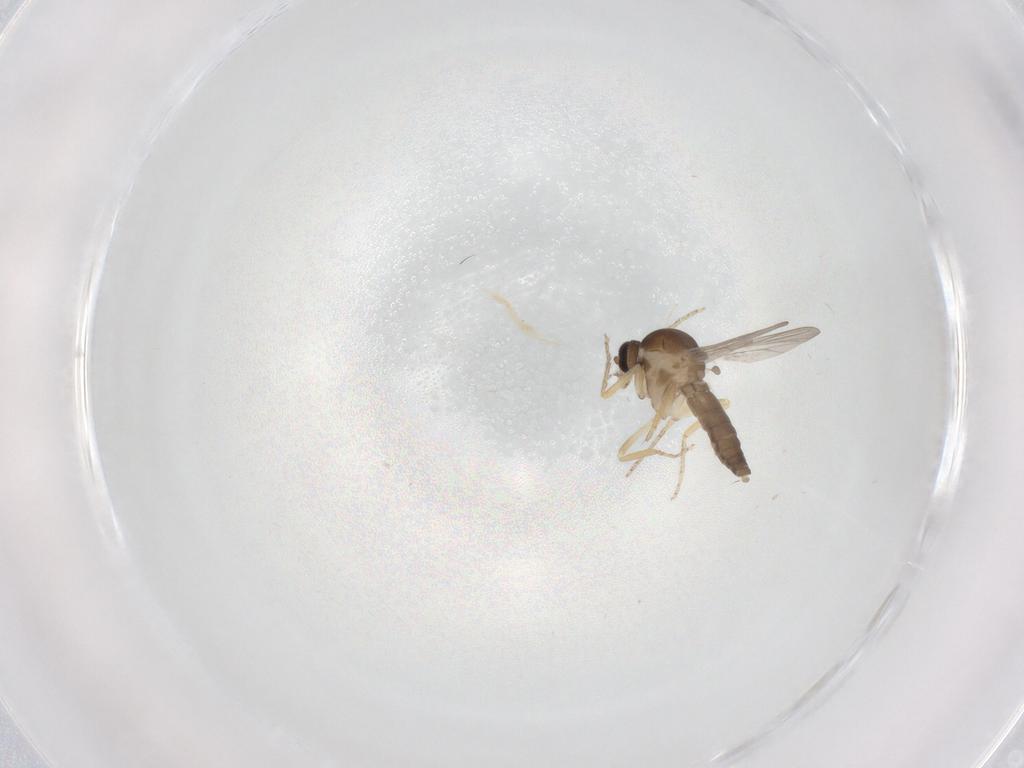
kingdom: Animalia
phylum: Arthropoda
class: Insecta
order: Diptera
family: Ceratopogonidae
